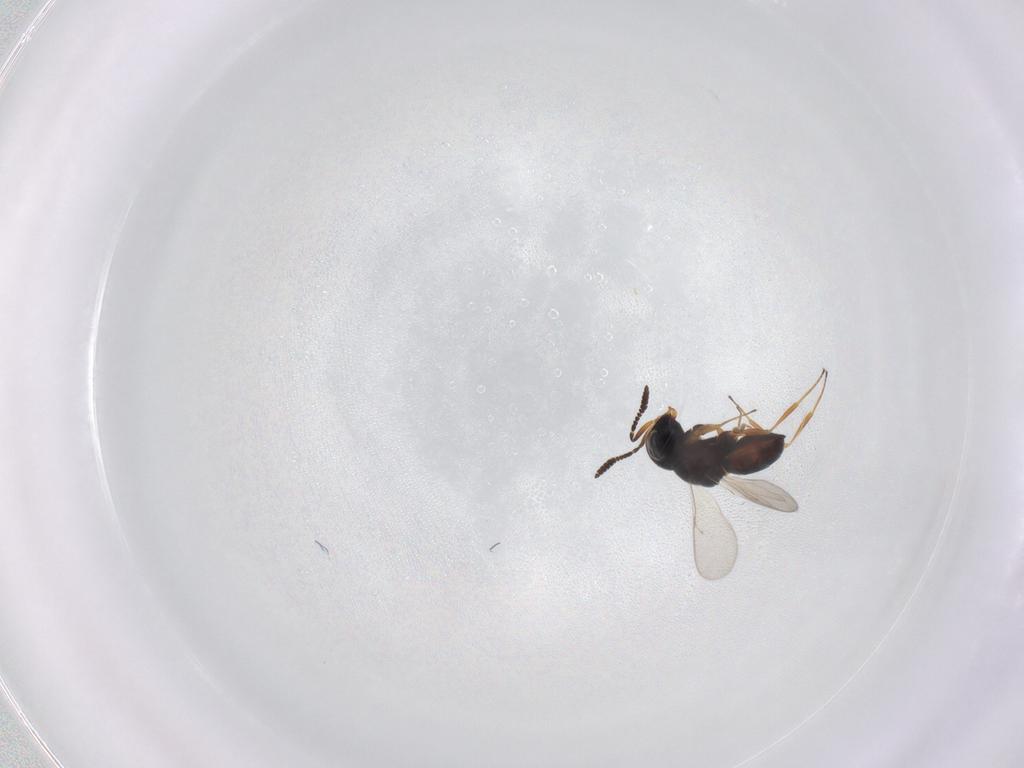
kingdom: Animalia
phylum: Arthropoda
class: Insecta
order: Hymenoptera
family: Scelionidae
